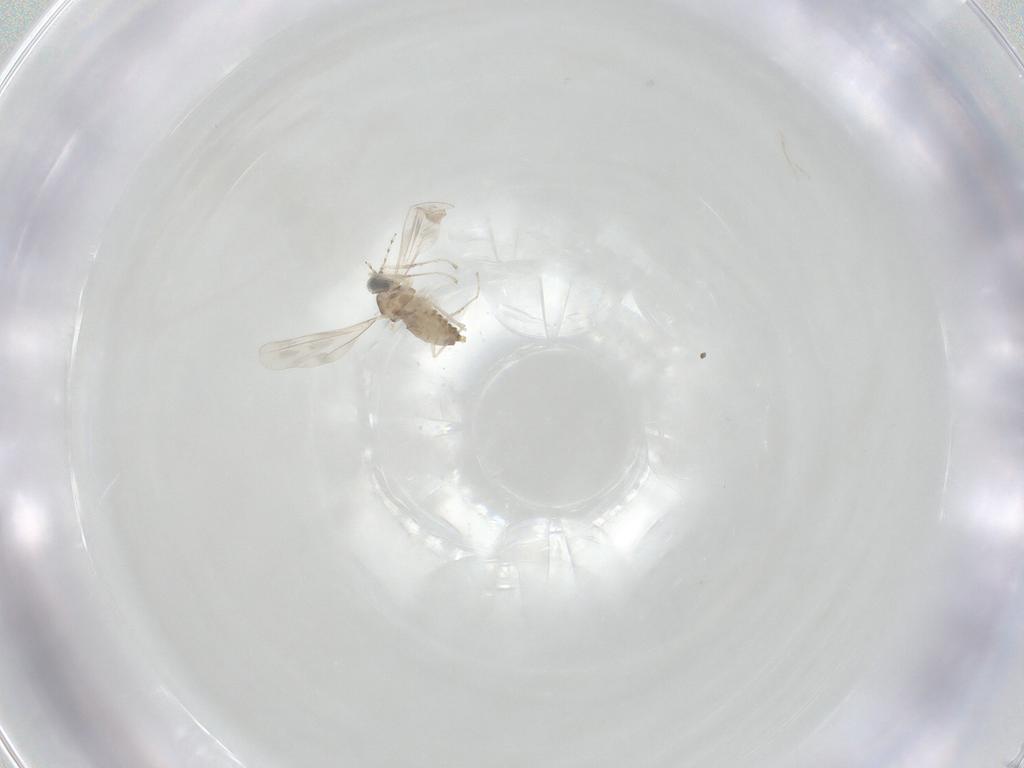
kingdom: Animalia
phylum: Arthropoda
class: Insecta
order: Diptera
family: Cecidomyiidae
